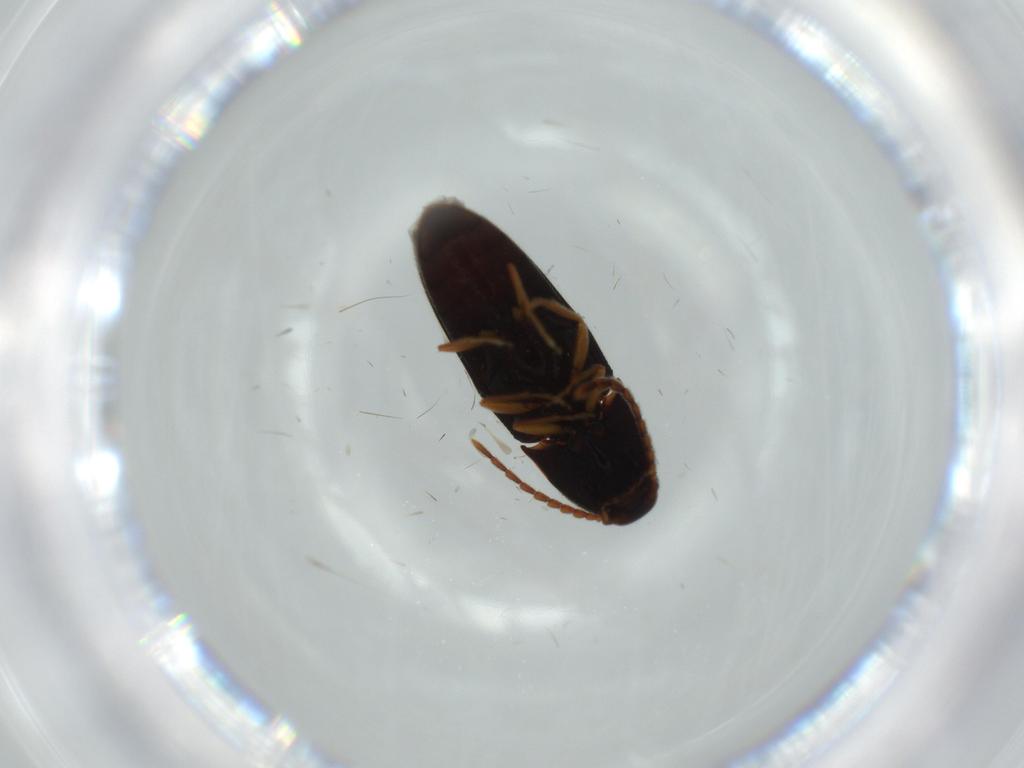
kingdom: Animalia
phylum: Arthropoda
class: Insecta
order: Coleoptera
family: Elateridae
